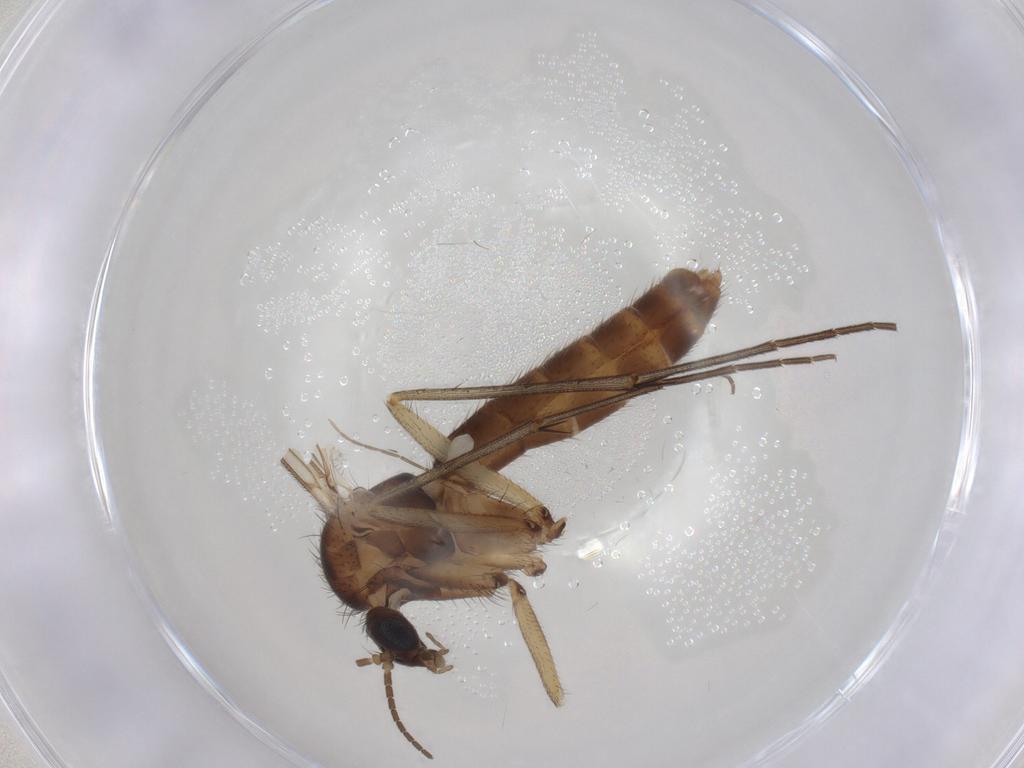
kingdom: Animalia
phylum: Arthropoda
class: Insecta
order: Diptera
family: Mycetophilidae
